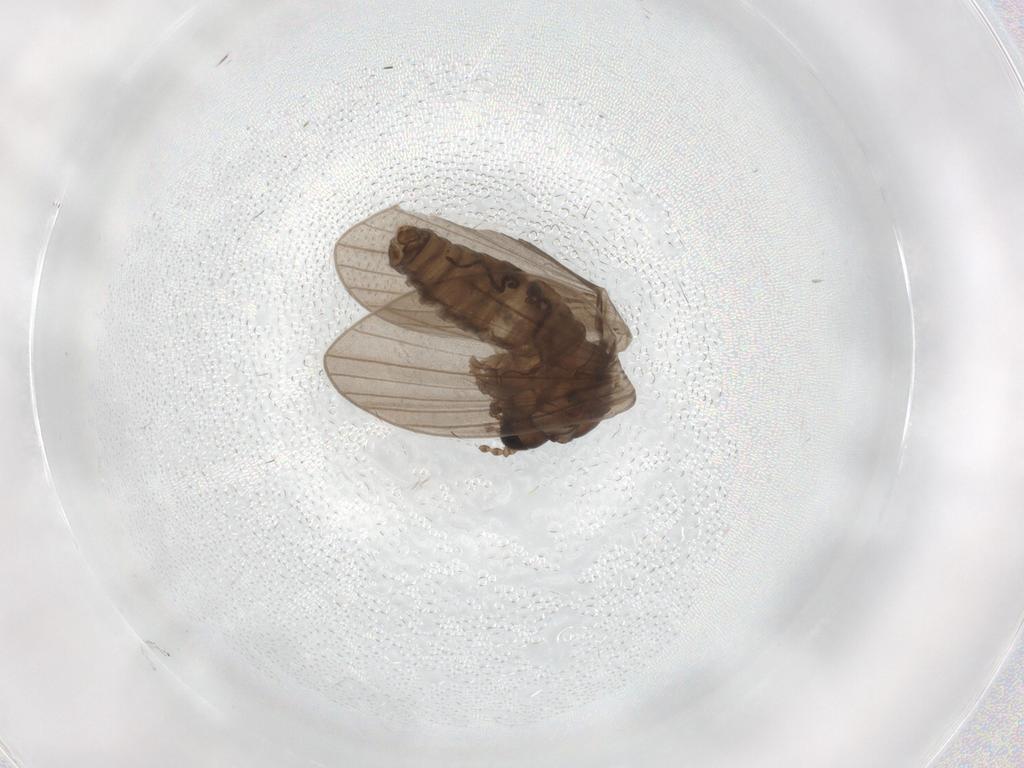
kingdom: Animalia
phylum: Arthropoda
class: Insecta
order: Diptera
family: Psychodidae
